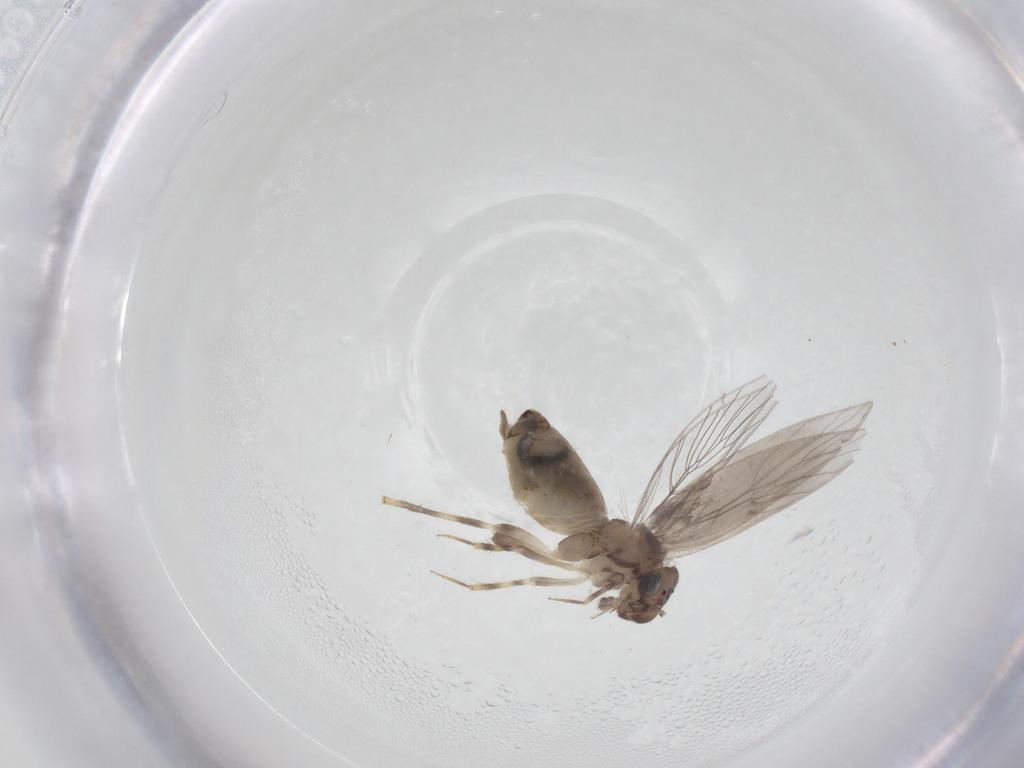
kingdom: Animalia
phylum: Arthropoda
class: Insecta
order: Psocodea
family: Lepidopsocidae
